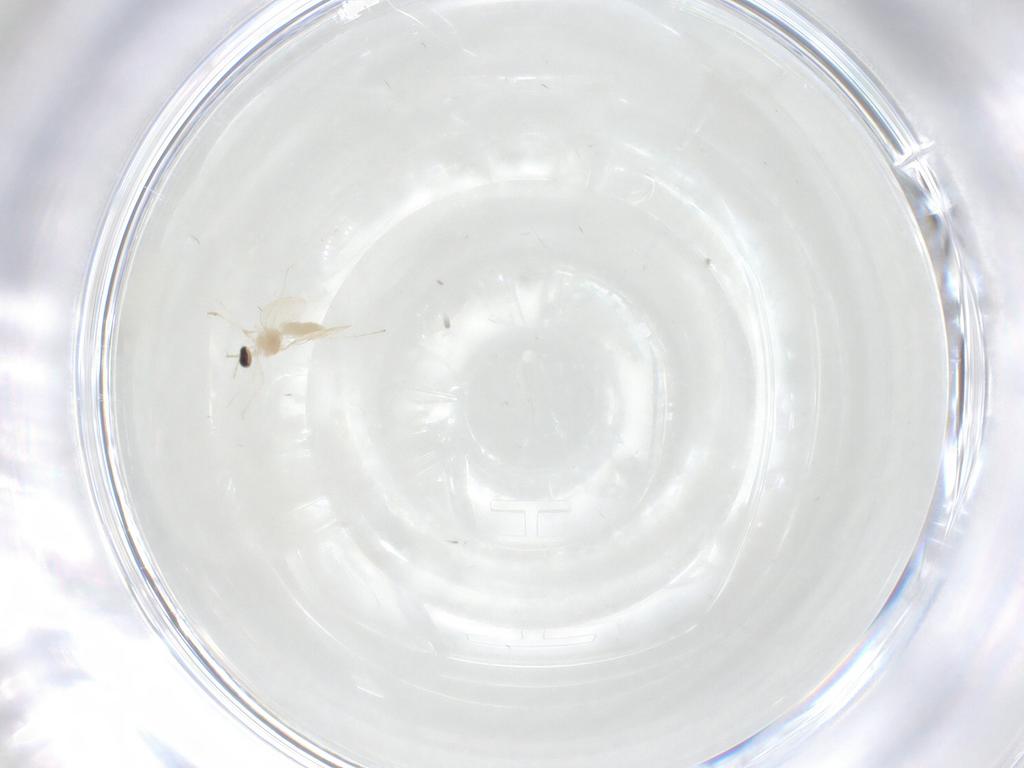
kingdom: Animalia
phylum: Arthropoda
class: Insecta
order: Diptera
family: Cecidomyiidae
